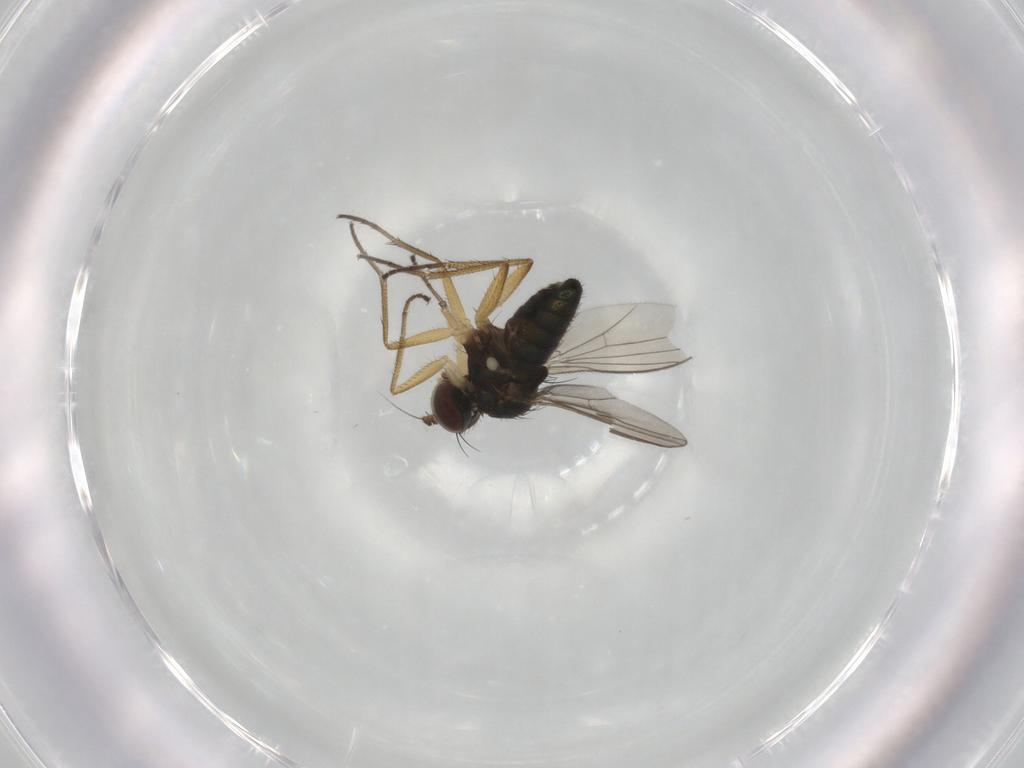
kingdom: Animalia
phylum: Arthropoda
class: Insecta
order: Diptera
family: Dolichopodidae
